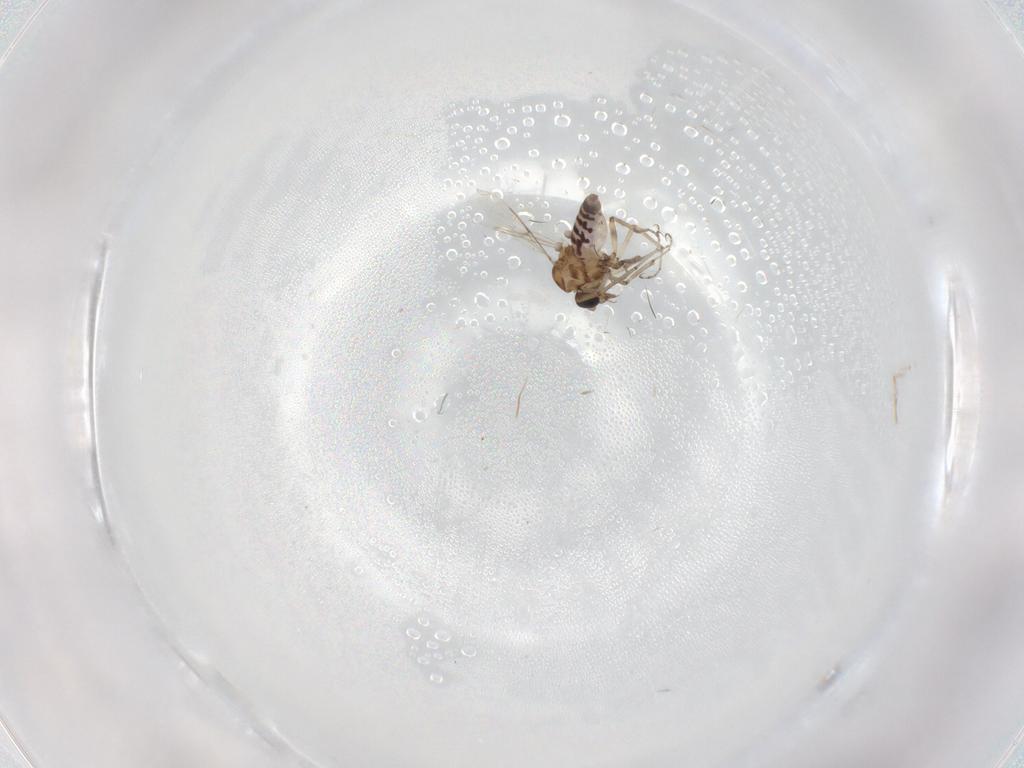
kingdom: Animalia
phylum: Arthropoda
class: Insecta
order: Diptera
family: Ceratopogonidae
